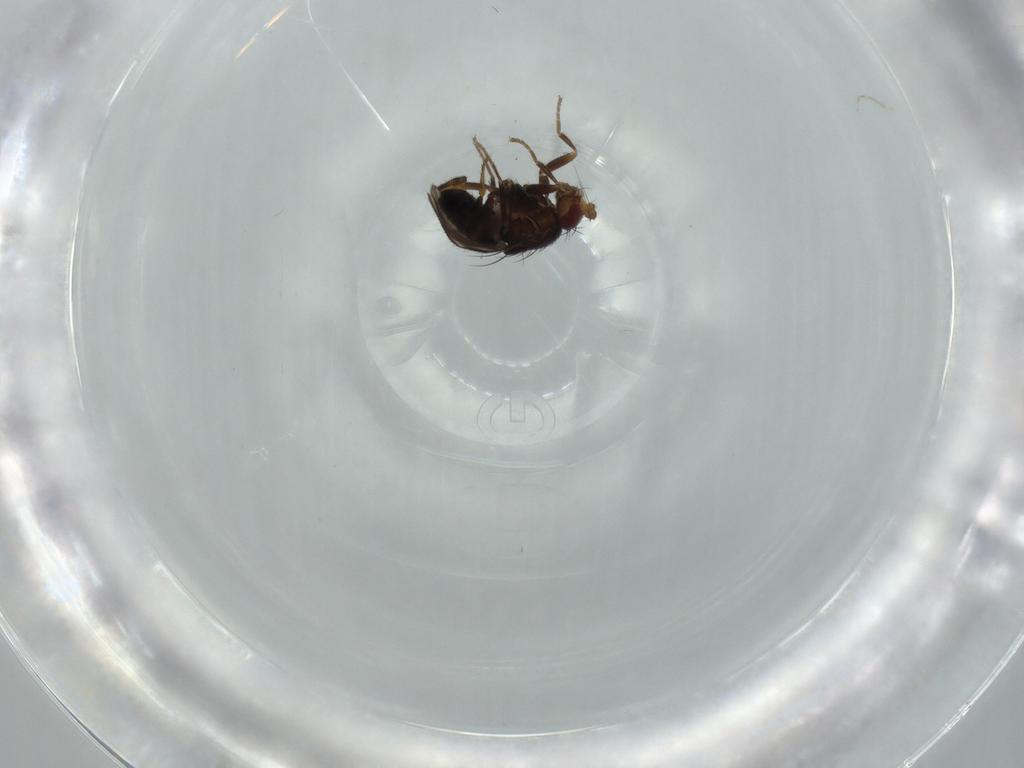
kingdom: Animalia
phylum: Arthropoda
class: Insecta
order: Diptera
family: Sphaeroceridae
